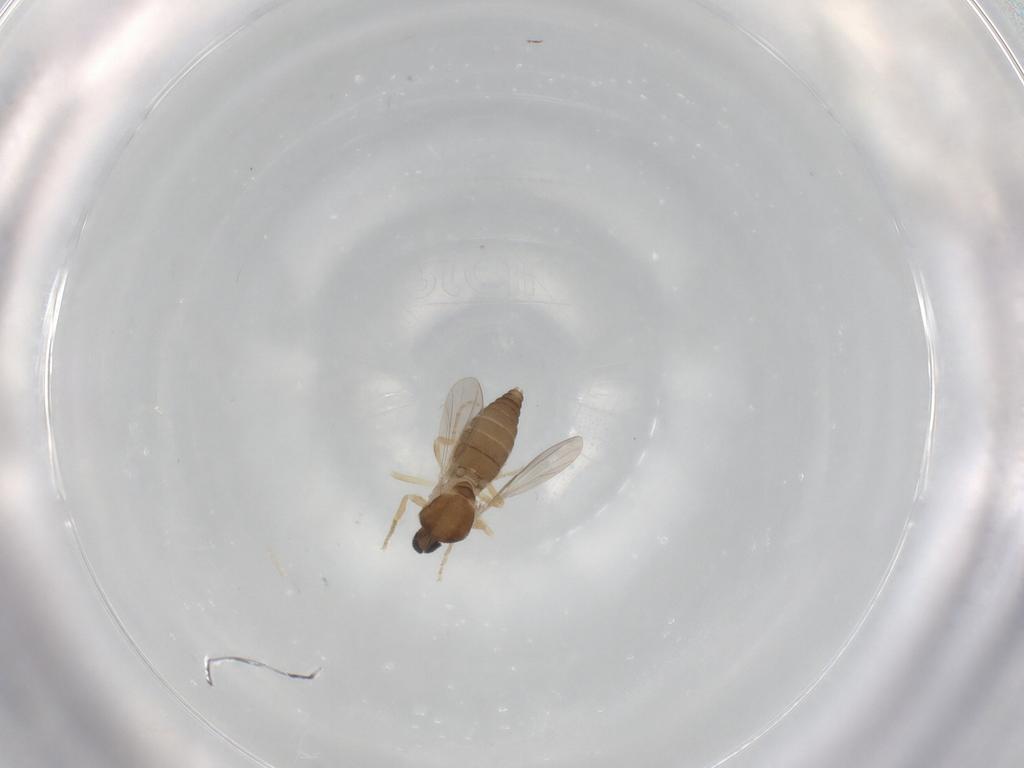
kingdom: Animalia
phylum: Arthropoda
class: Insecta
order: Diptera
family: Ceratopogonidae
